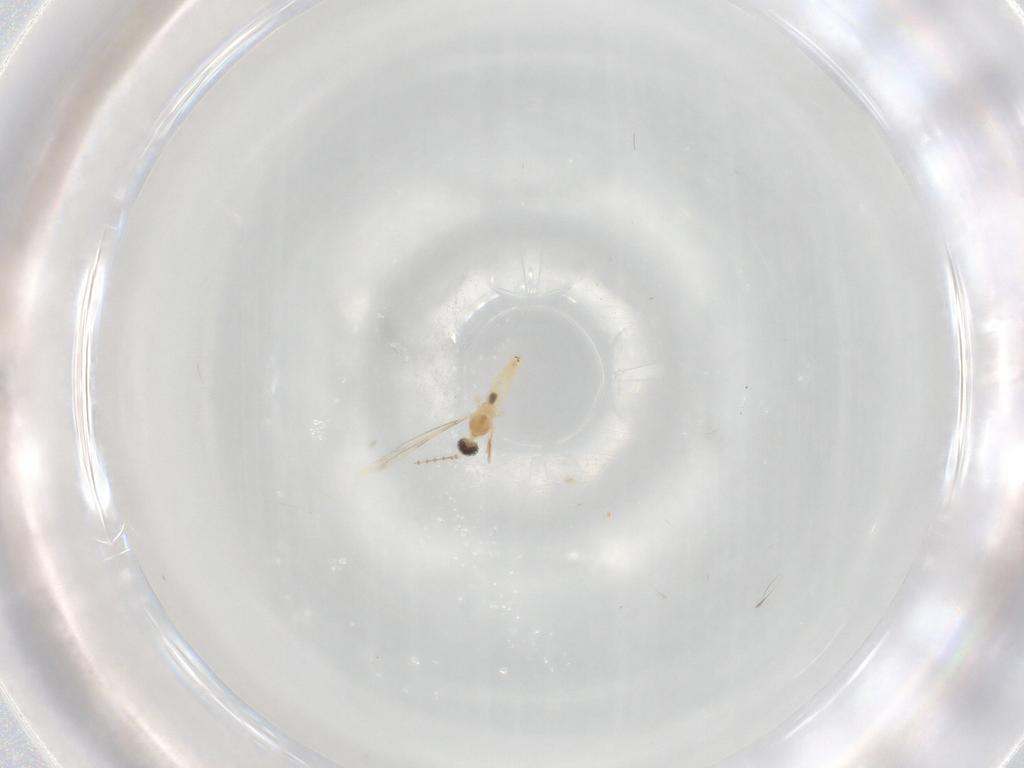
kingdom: Animalia
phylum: Arthropoda
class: Insecta
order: Diptera
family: Cecidomyiidae
